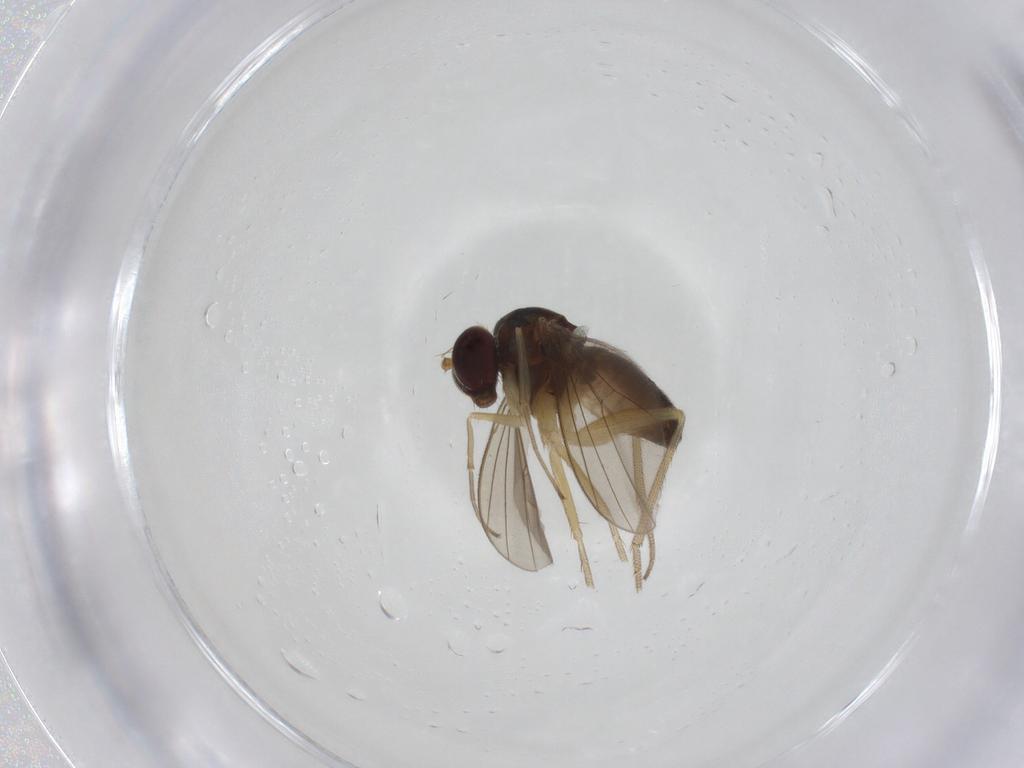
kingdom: Animalia
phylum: Arthropoda
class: Insecta
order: Diptera
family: Dolichopodidae
